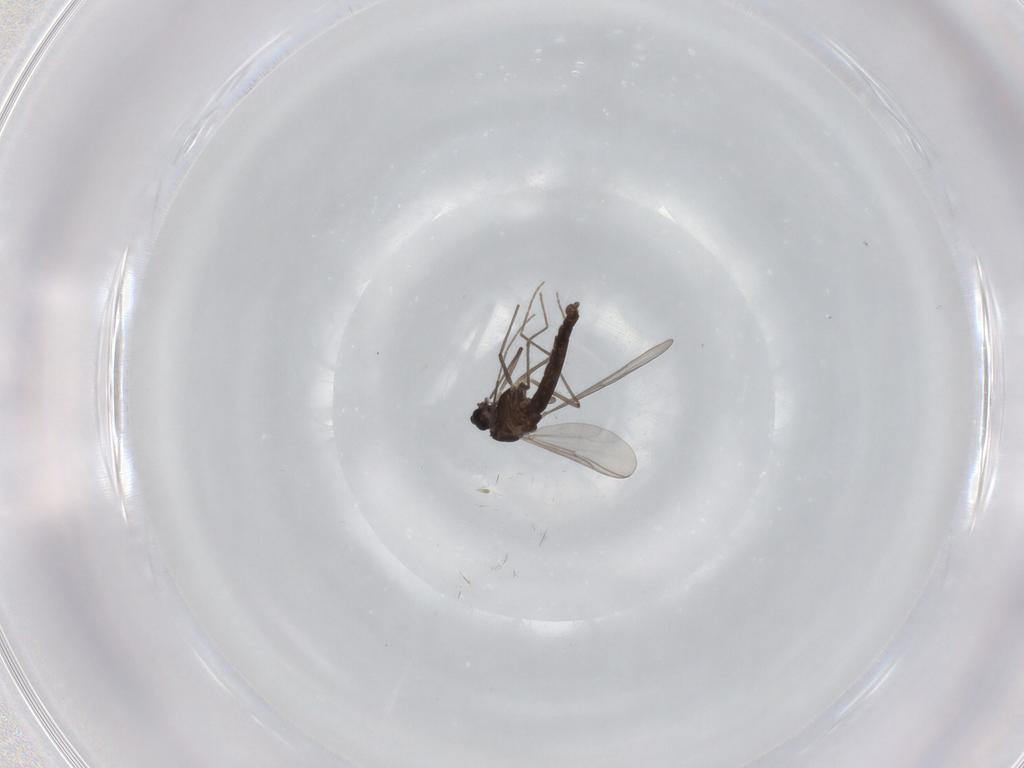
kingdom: Animalia
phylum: Arthropoda
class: Insecta
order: Diptera
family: Chironomidae
